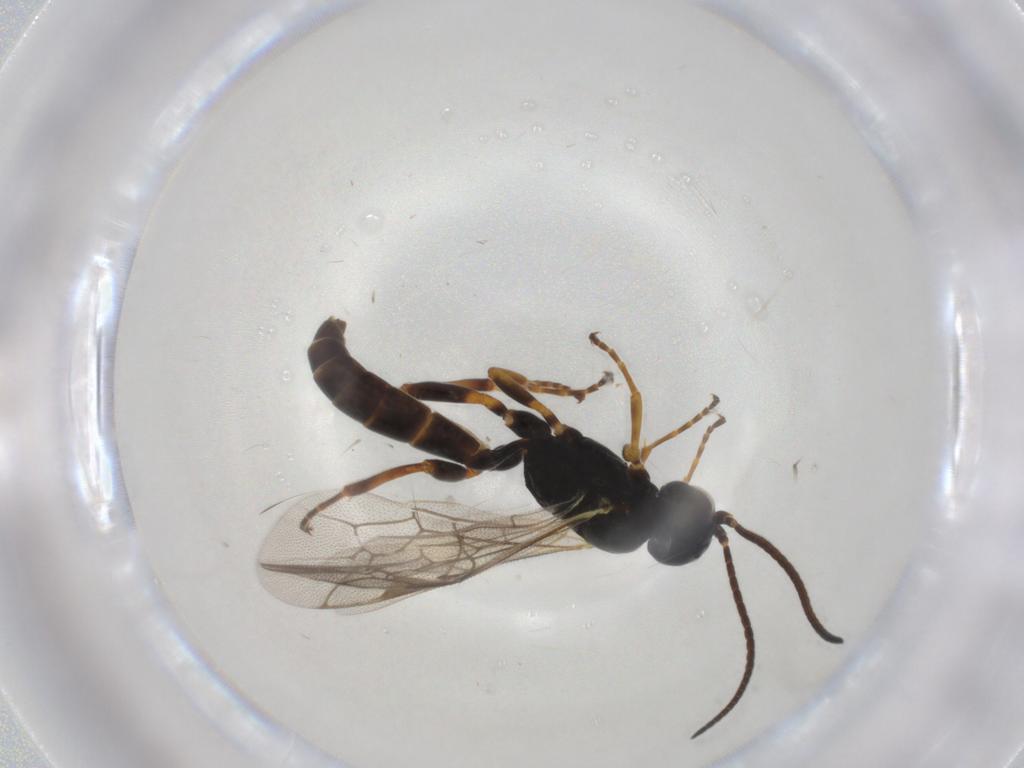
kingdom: Animalia
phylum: Arthropoda
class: Insecta
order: Hymenoptera
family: Ichneumonidae
